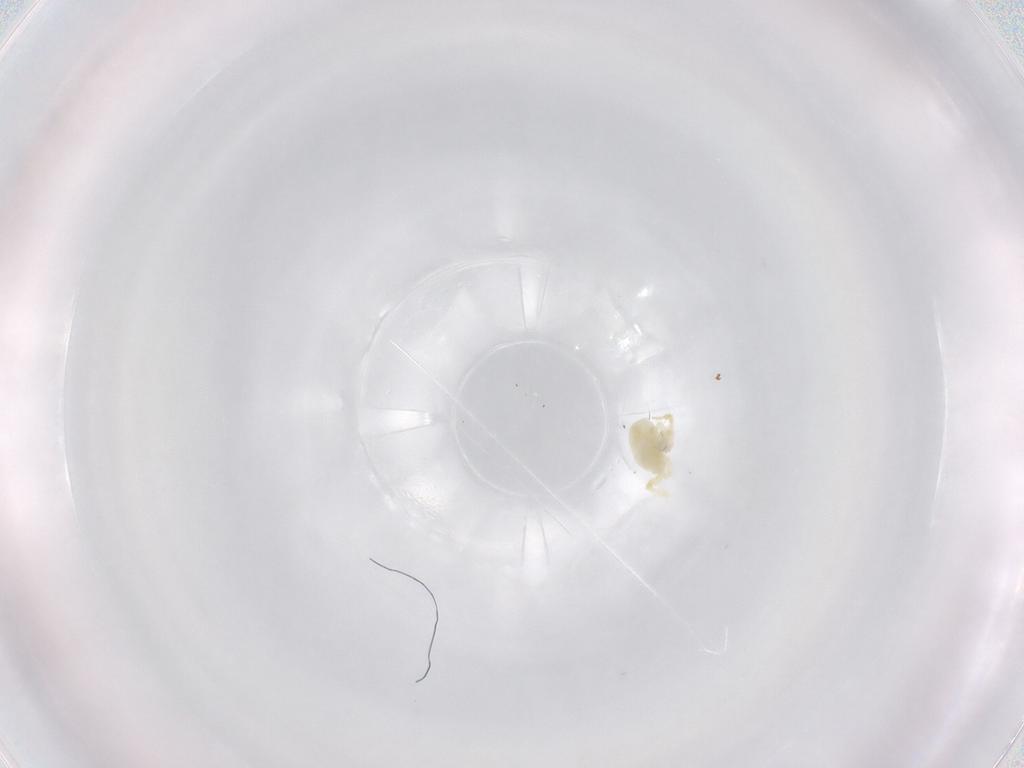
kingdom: Animalia
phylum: Arthropoda
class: Arachnida
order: Trombidiformes
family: Rhagidiidae
